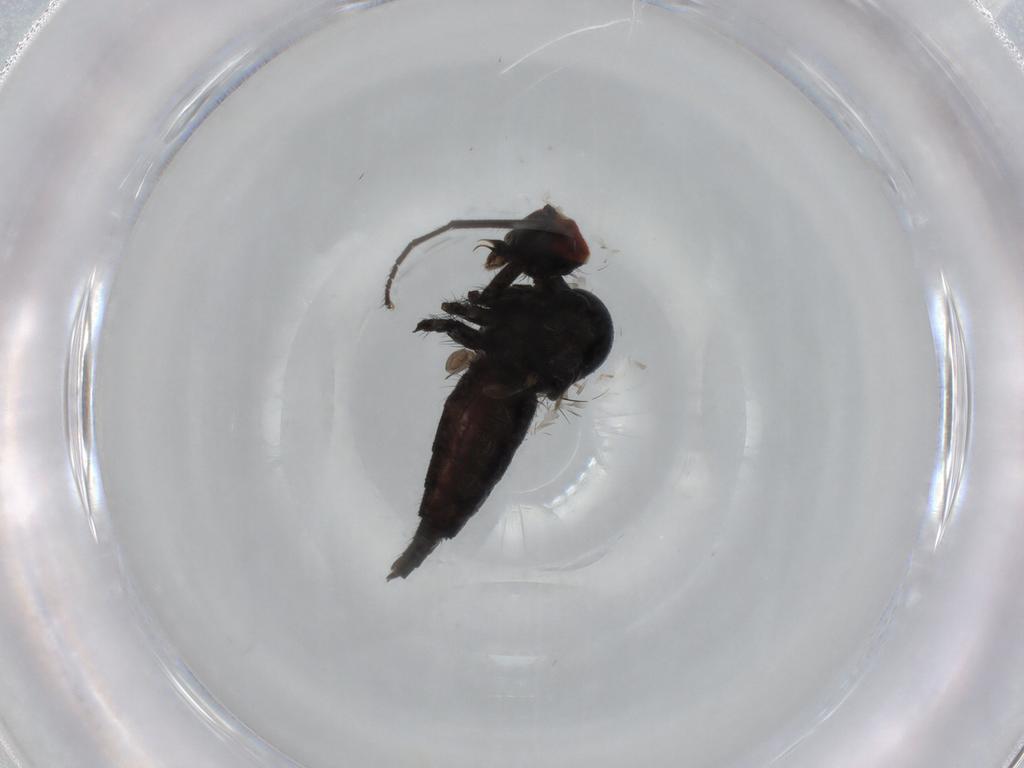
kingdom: Animalia
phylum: Arthropoda
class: Insecta
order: Diptera
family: Hybotidae
